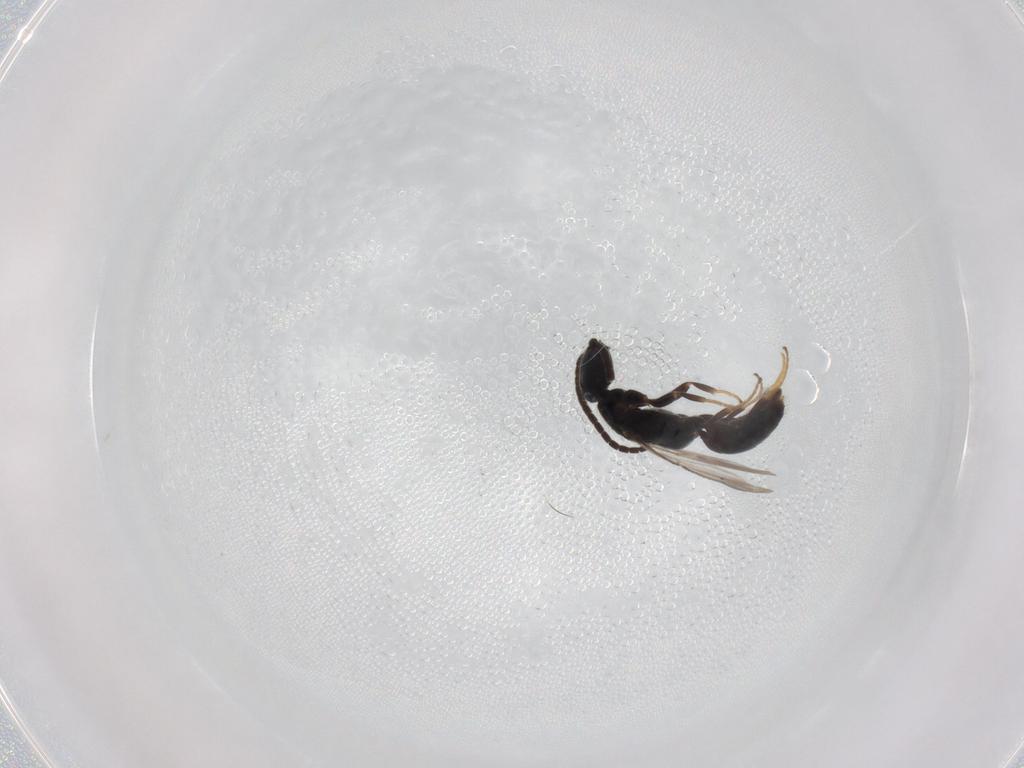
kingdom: Animalia
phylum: Arthropoda
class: Insecta
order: Hymenoptera
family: Bethylidae
